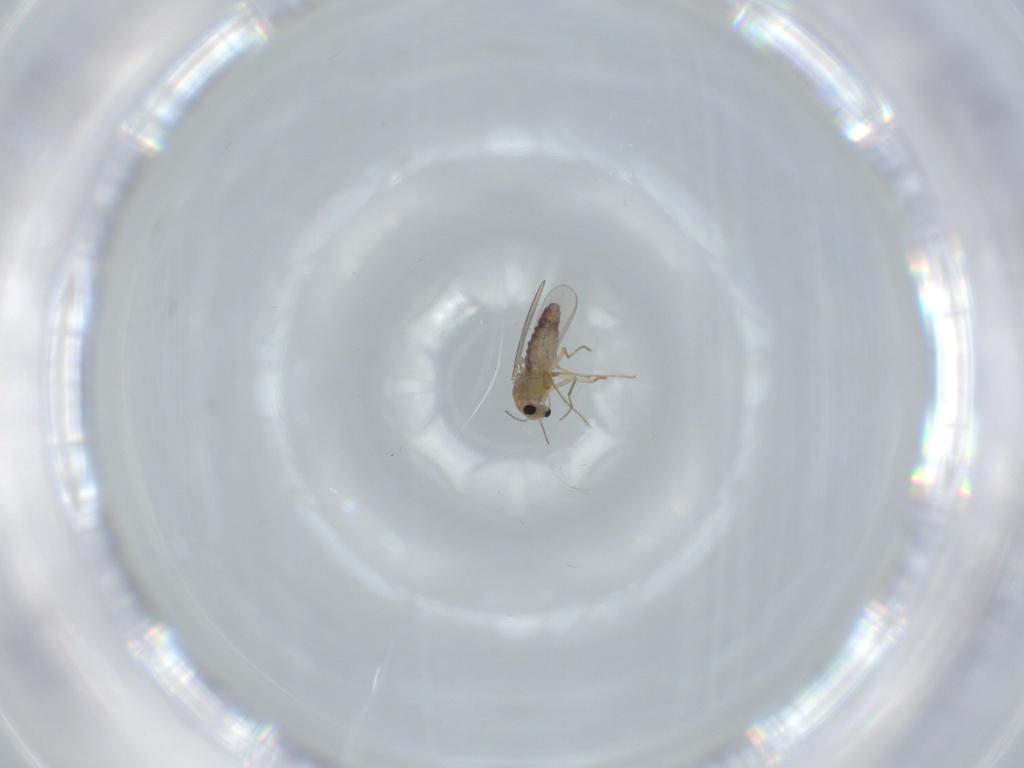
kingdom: Animalia
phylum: Arthropoda
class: Insecta
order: Diptera
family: Chironomidae
